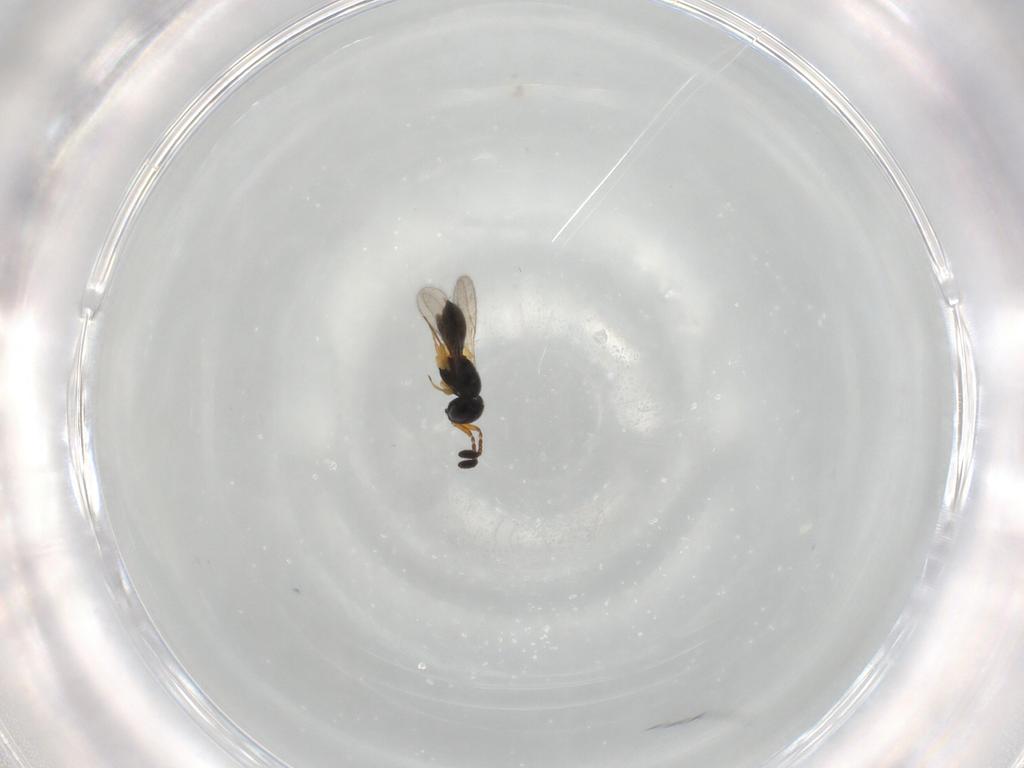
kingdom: Animalia
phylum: Arthropoda
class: Insecta
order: Hymenoptera
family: Scelionidae
